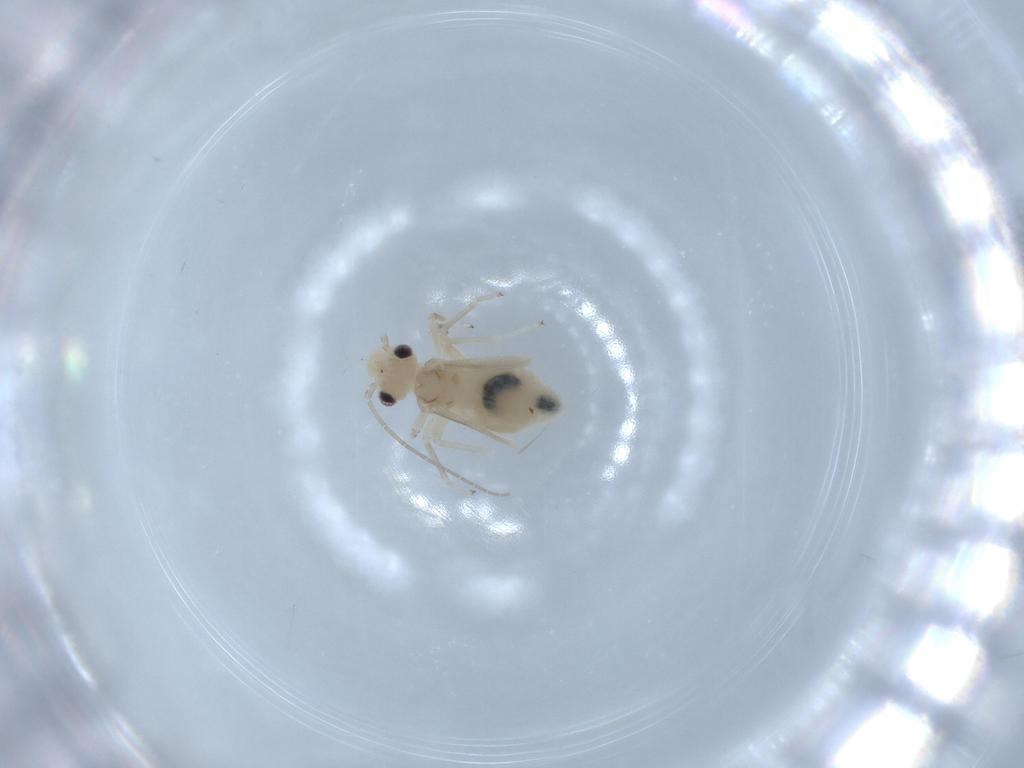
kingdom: Animalia
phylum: Arthropoda
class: Insecta
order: Psocodea
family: Caeciliusidae
